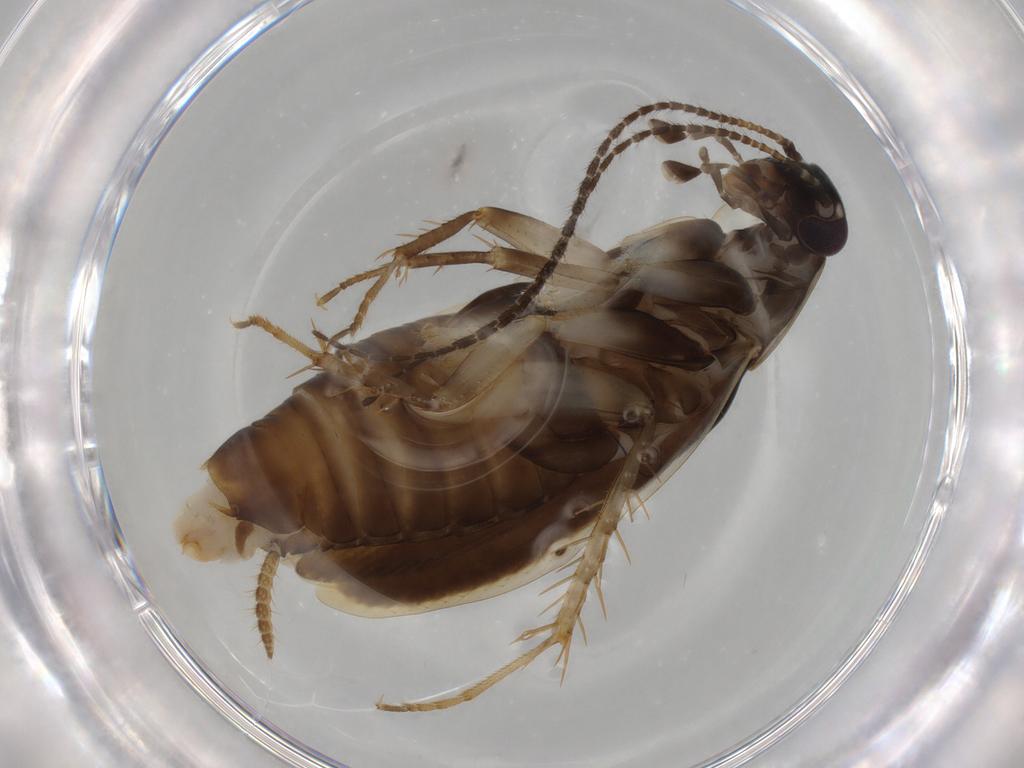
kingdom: Animalia
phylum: Arthropoda
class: Insecta
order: Blattodea
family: Ectobiidae
